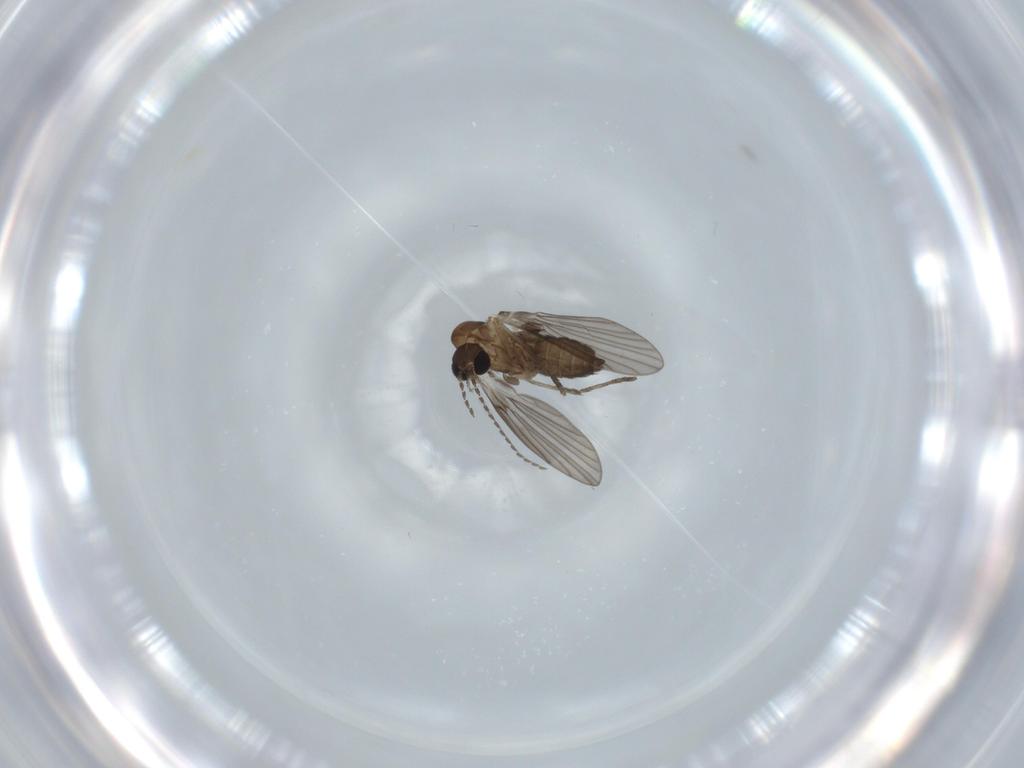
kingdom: Animalia
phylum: Arthropoda
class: Insecta
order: Diptera
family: Psychodidae
